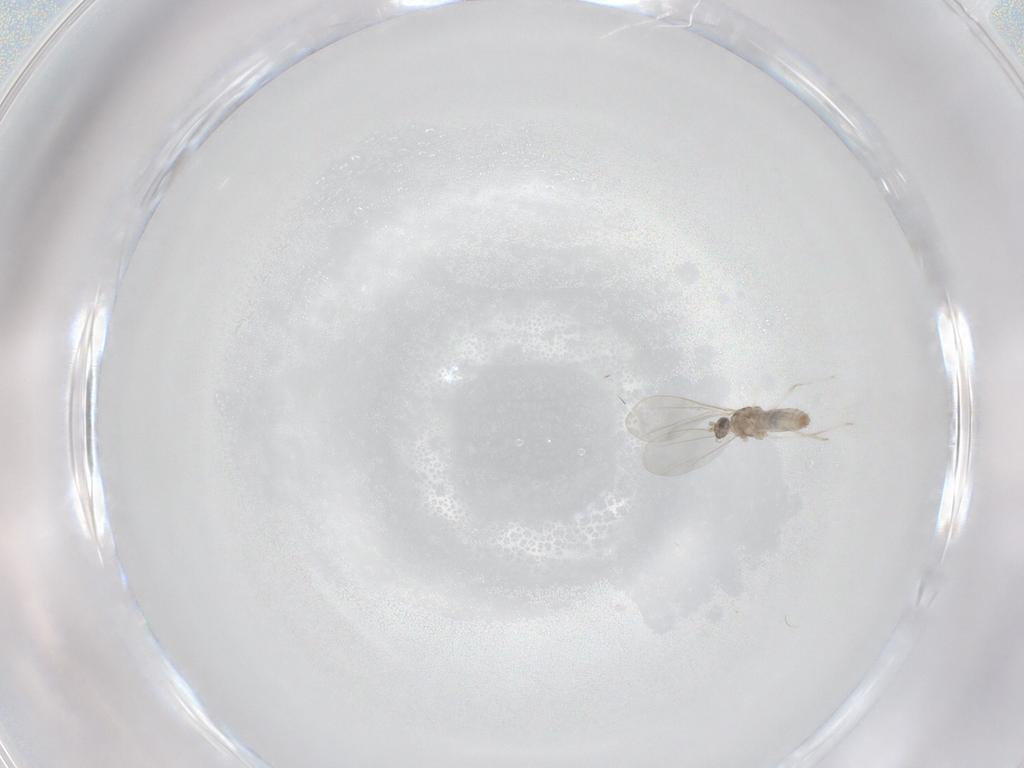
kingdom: Animalia
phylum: Arthropoda
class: Insecta
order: Diptera
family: Cecidomyiidae
